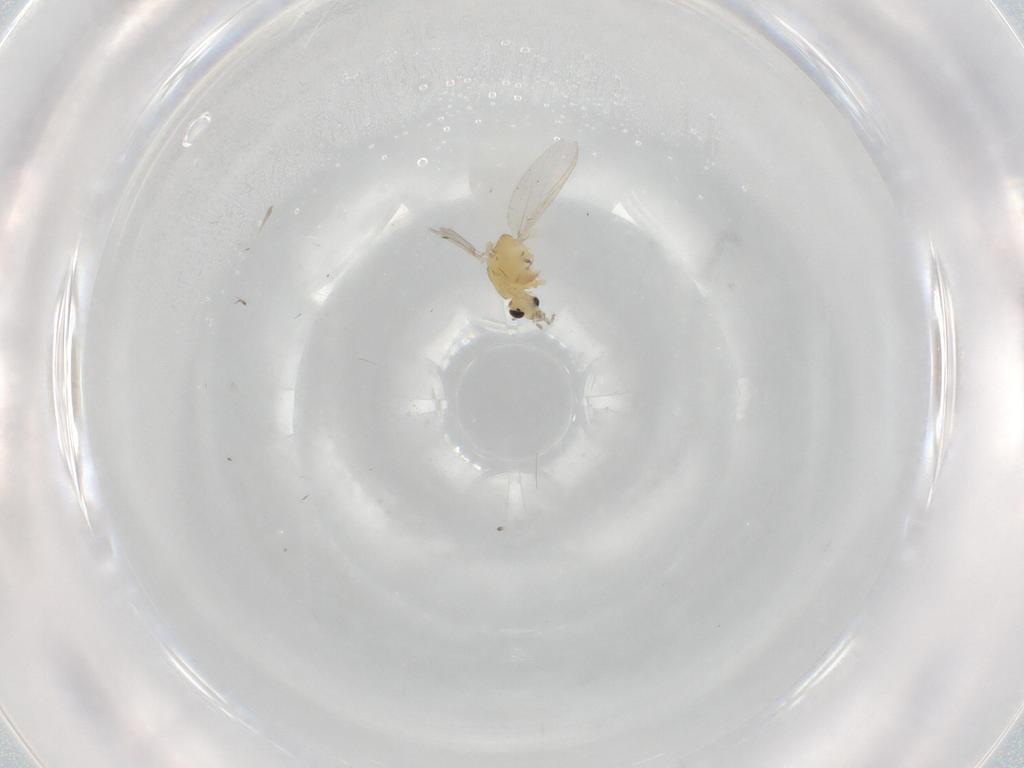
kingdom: Animalia
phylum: Arthropoda
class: Insecta
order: Diptera
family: Chironomidae
